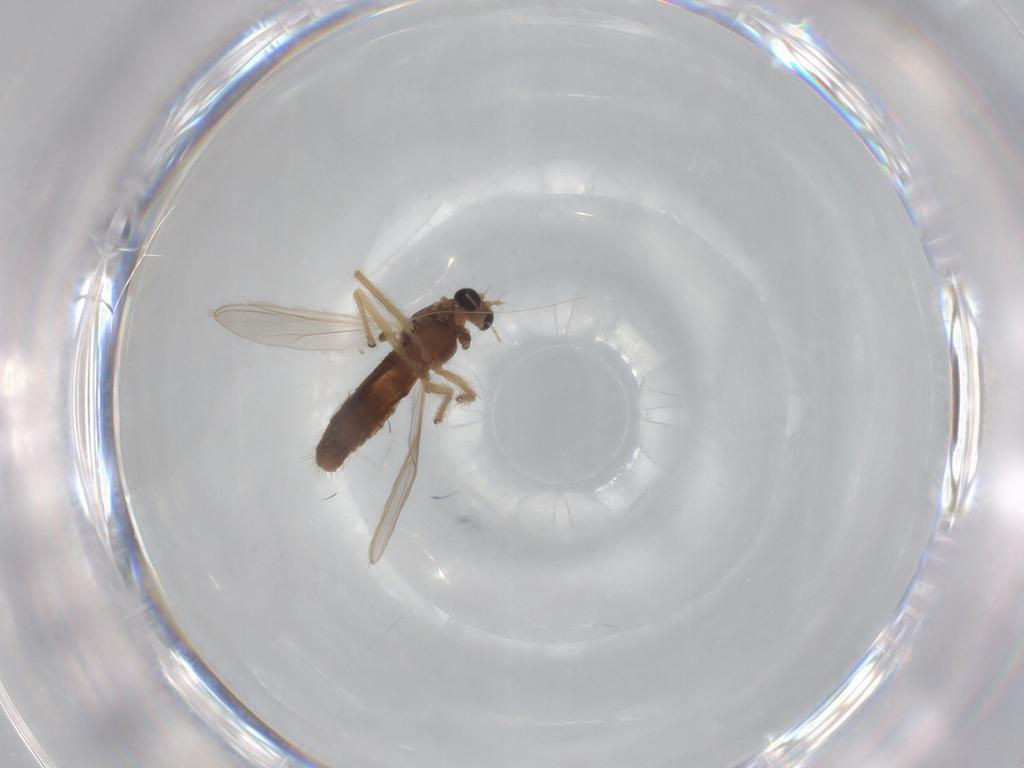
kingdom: Animalia
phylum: Arthropoda
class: Insecta
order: Diptera
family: Chironomidae
